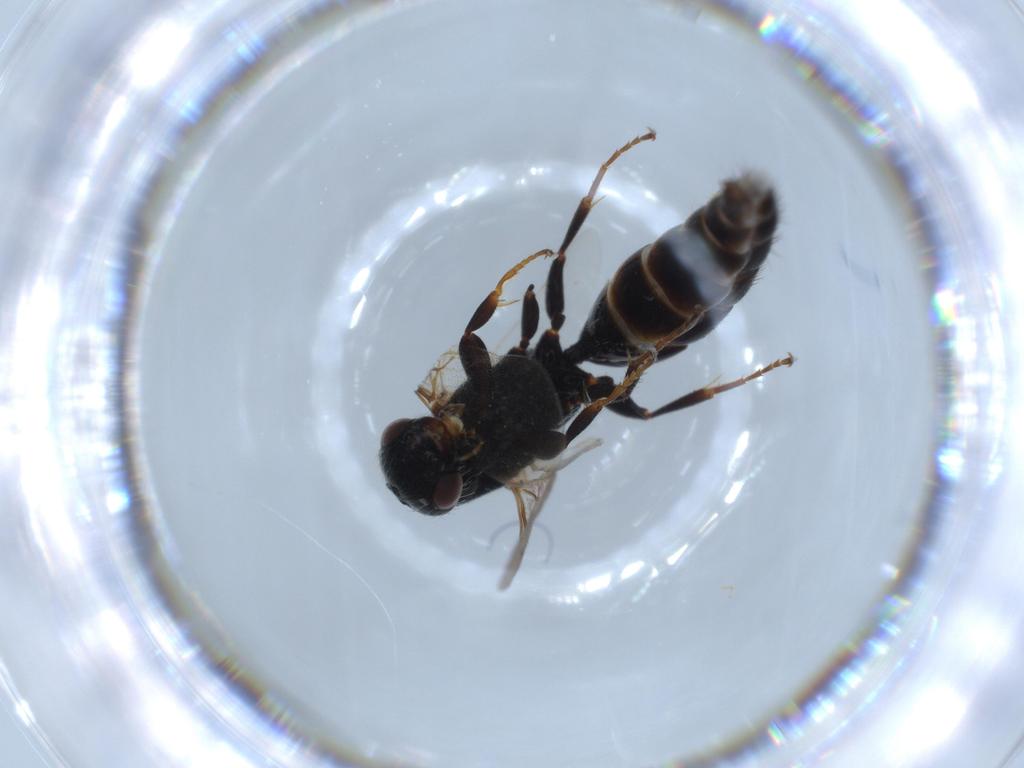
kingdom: Animalia
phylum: Arthropoda
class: Insecta
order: Hymenoptera
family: Bethylidae
